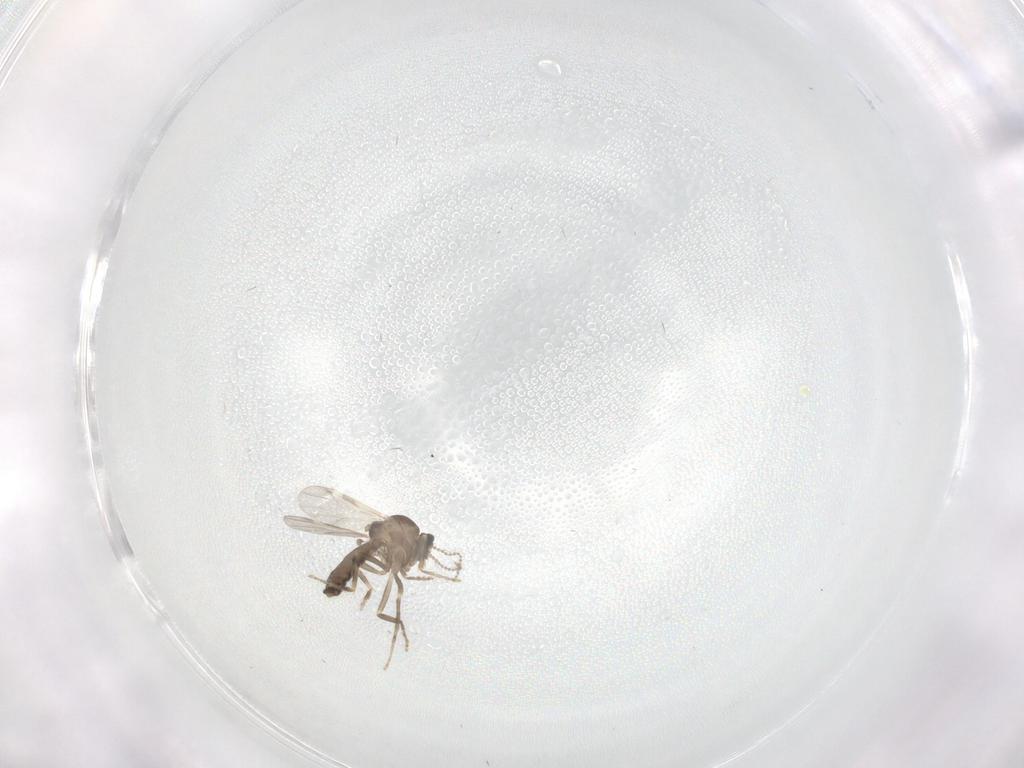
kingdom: Animalia
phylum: Arthropoda
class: Insecta
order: Diptera
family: Ceratopogonidae
